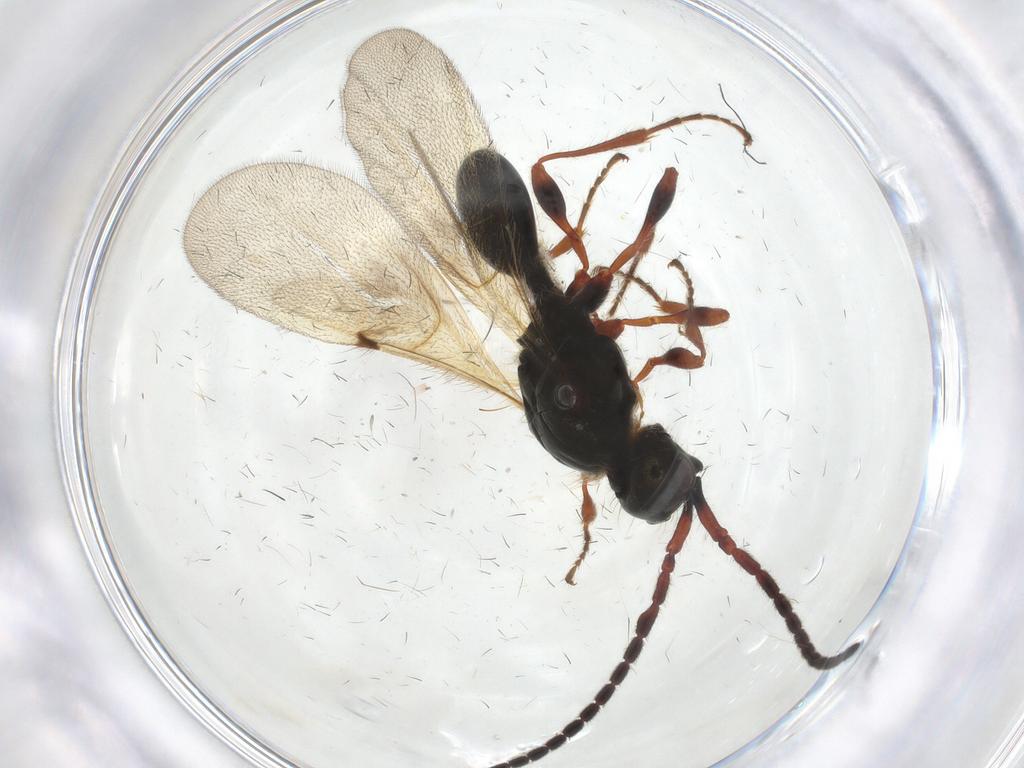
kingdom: Animalia
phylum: Arthropoda
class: Insecta
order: Hymenoptera
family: Diapriidae
